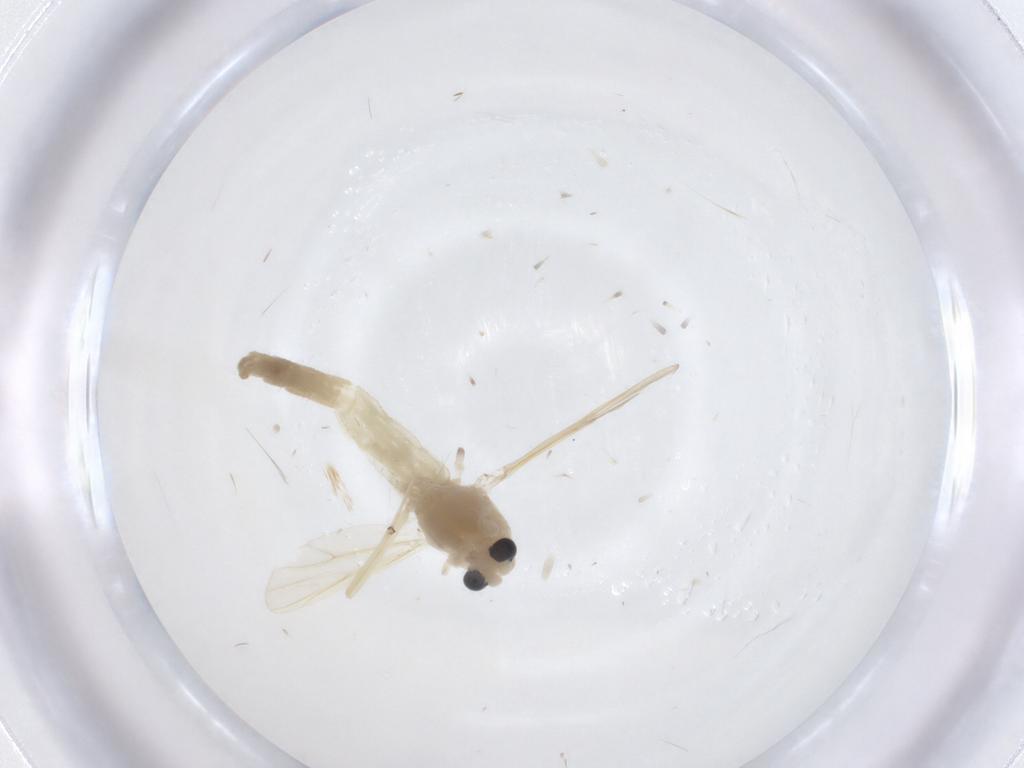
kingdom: Animalia
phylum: Arthropoda
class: Insecta
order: Diptera
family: Chironomidae
